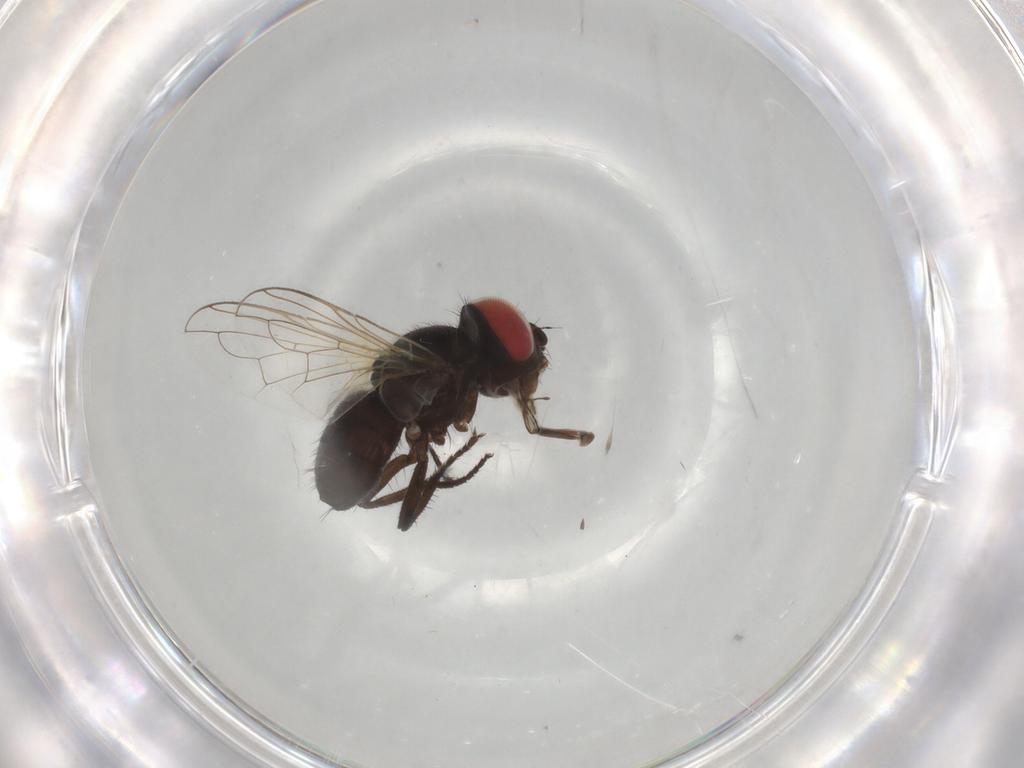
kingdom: Animalia
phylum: Arthropoda
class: Insecta
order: Diptera
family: Tachinidae
